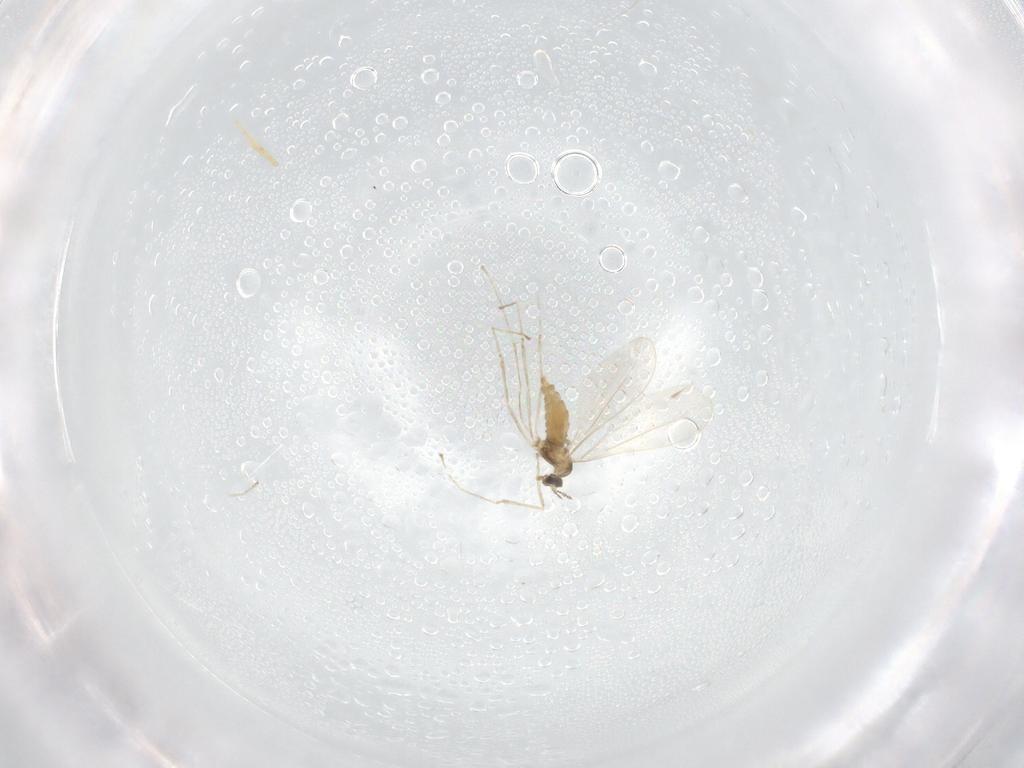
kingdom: Animalia
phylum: Arthropoda
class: Insecta
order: Diptera
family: Cecidomyiidae
